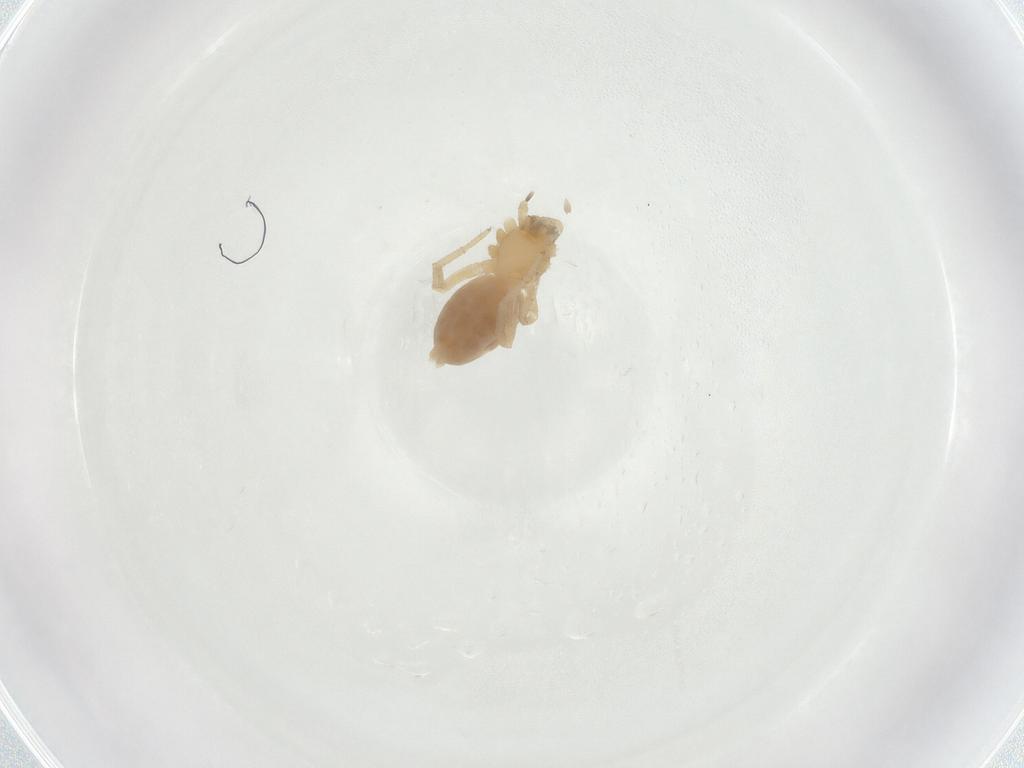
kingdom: Animalia
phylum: Arthropoda
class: Arachnida
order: Araneae
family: Anyphaenidae
